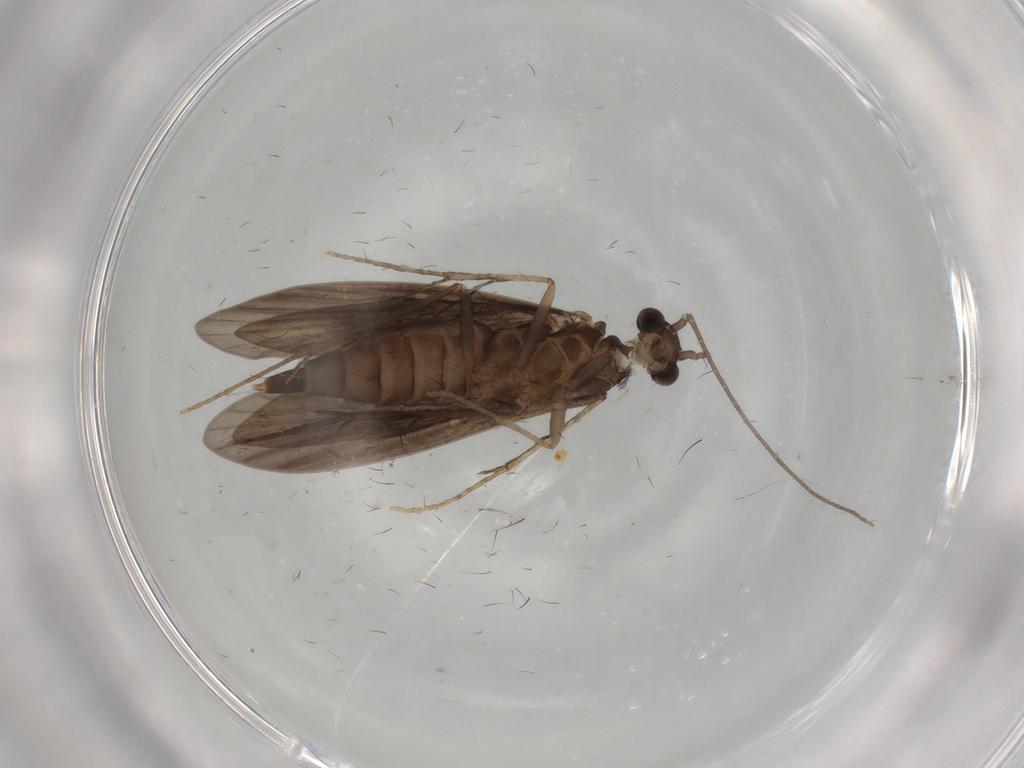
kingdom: Animalia
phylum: Arthropoda
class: Insecta
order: Trichoptera
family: Xiphocentronidae
